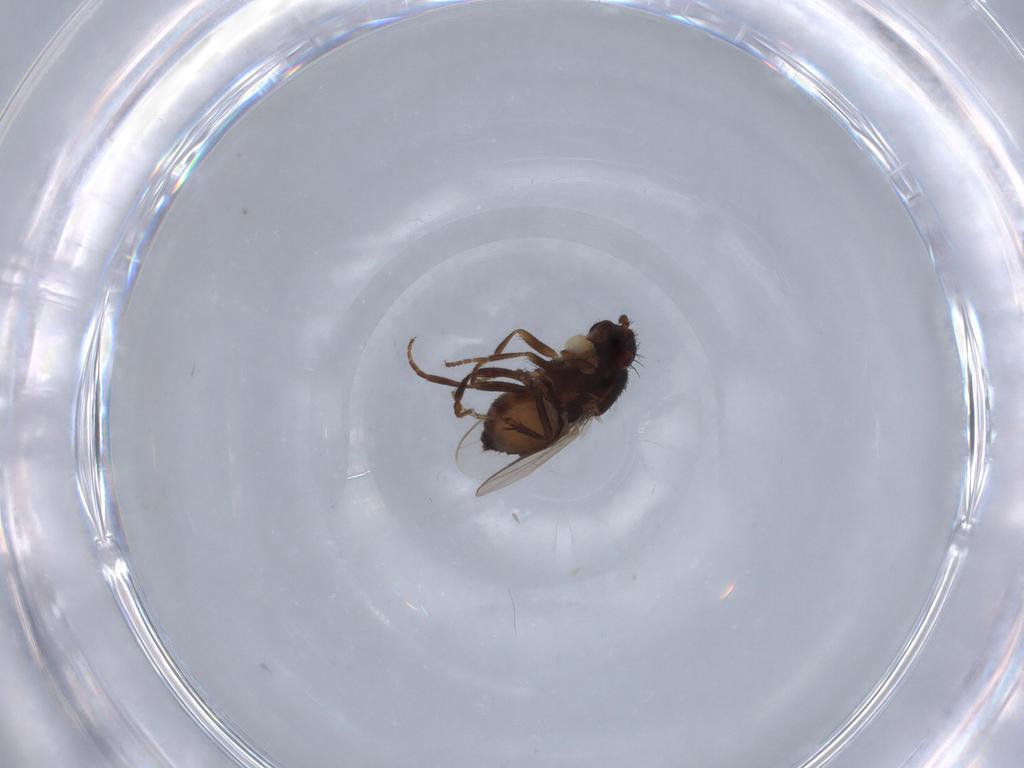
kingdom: Animalia
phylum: Arthropoda
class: Insecta
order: Diptera
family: Sphaeroceridae
